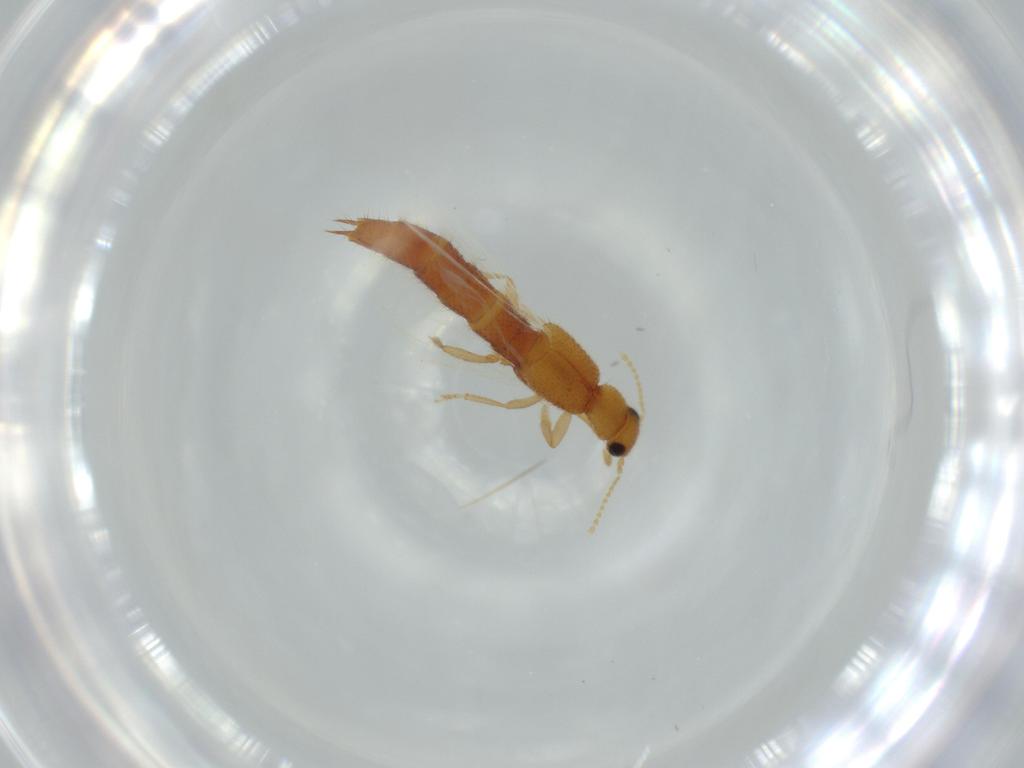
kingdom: Animalia
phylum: Arthropoda
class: Insecta
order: Coleoptera
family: Staphylinidae
